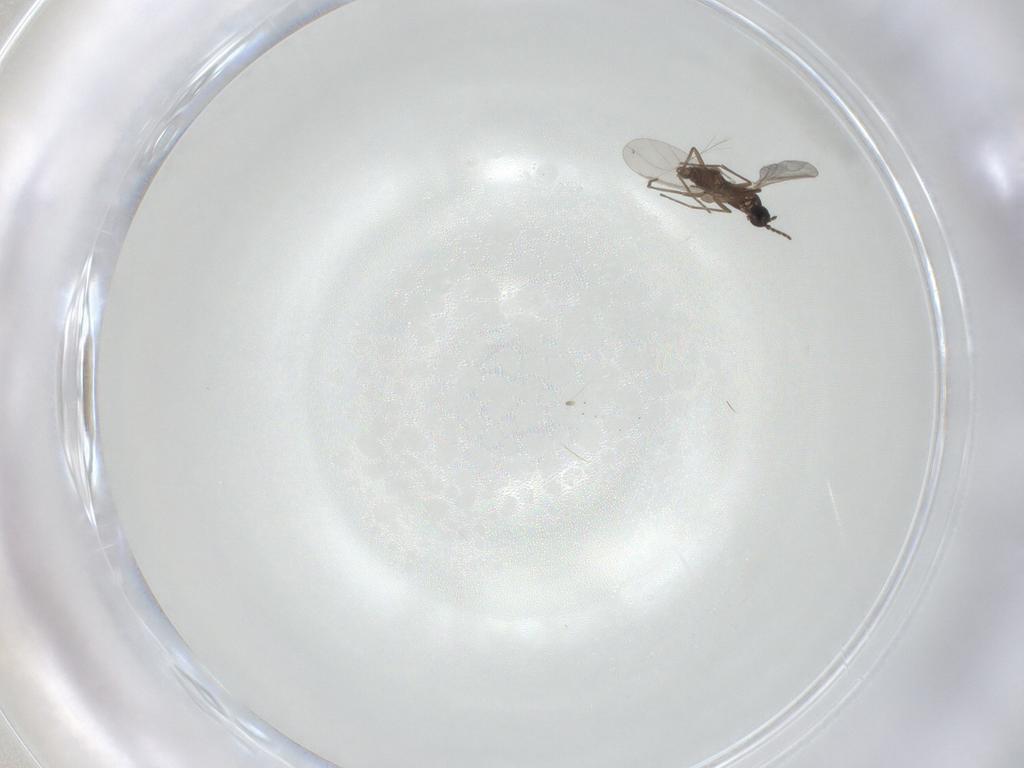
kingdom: Animalia
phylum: Arthropoda
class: Insecta
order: Diptera
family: Sciaridae
